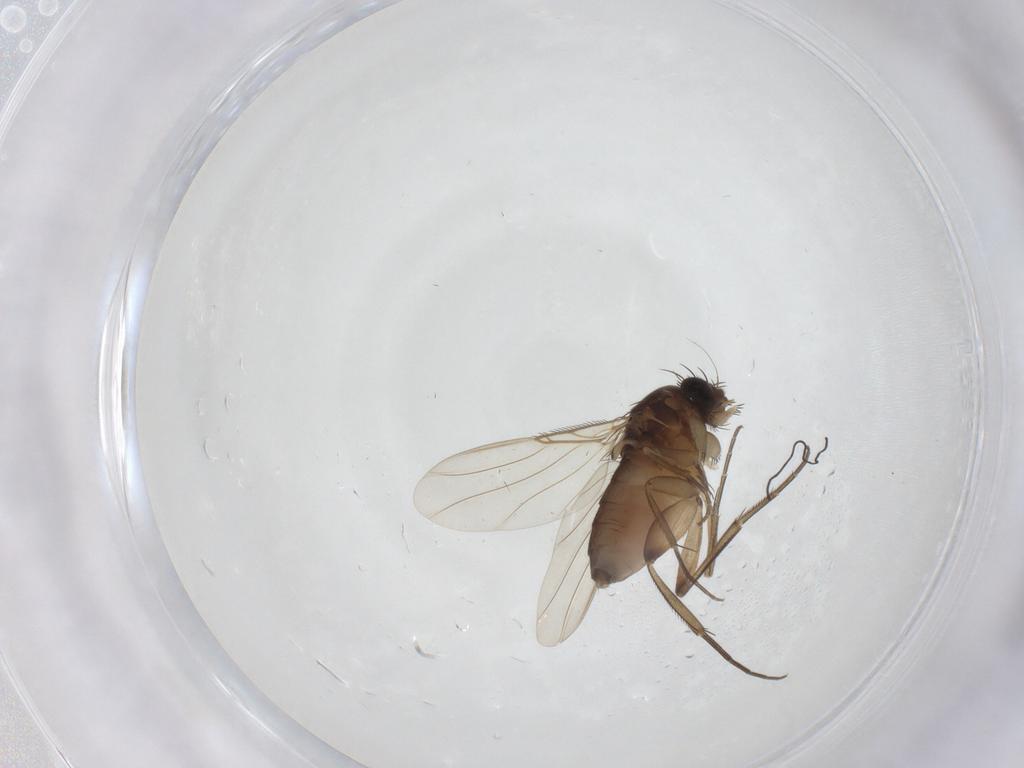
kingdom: Animalia
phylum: Arthropoda
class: Insecta
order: Diptera
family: Phoridae
